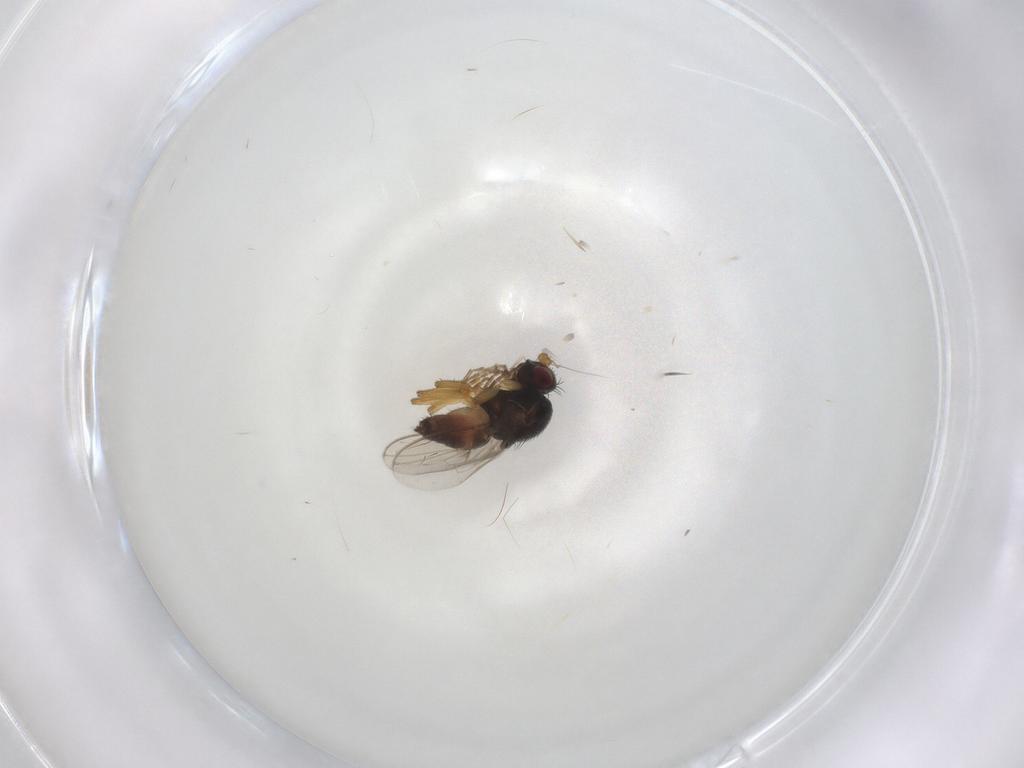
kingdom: Animalia
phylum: Arthropoda
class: Insecta
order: Diptera
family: Sphaeroceridae
